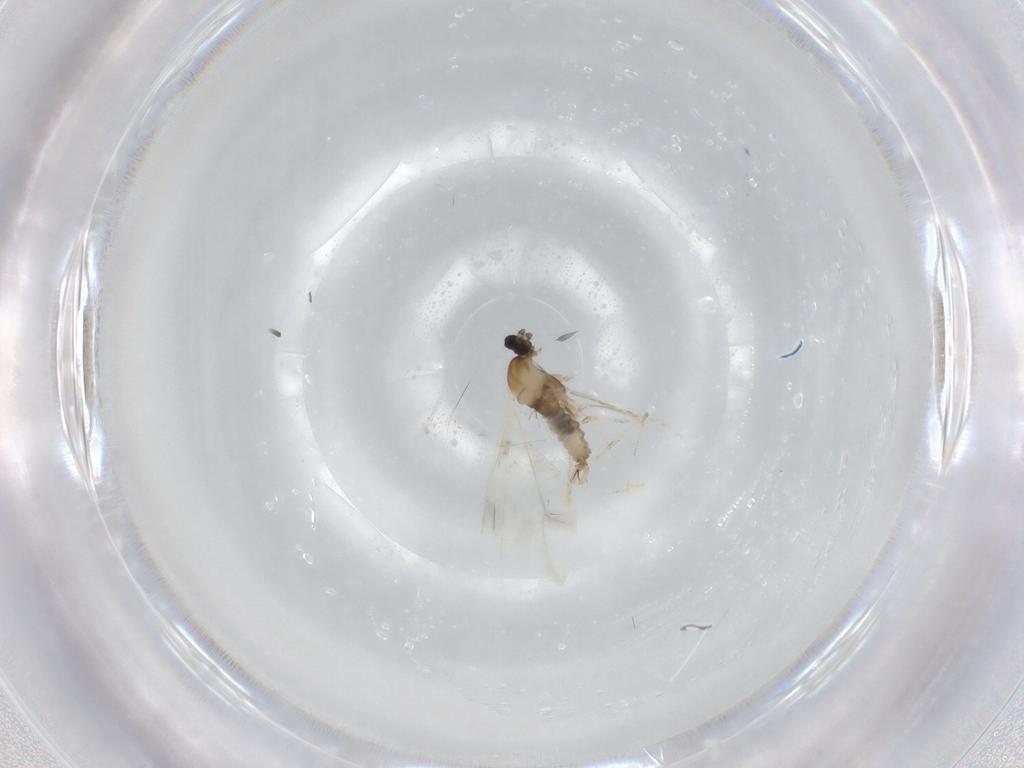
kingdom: Animalia
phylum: Arthropoda
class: Insecta
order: Diptera
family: Cecidomyiidae
